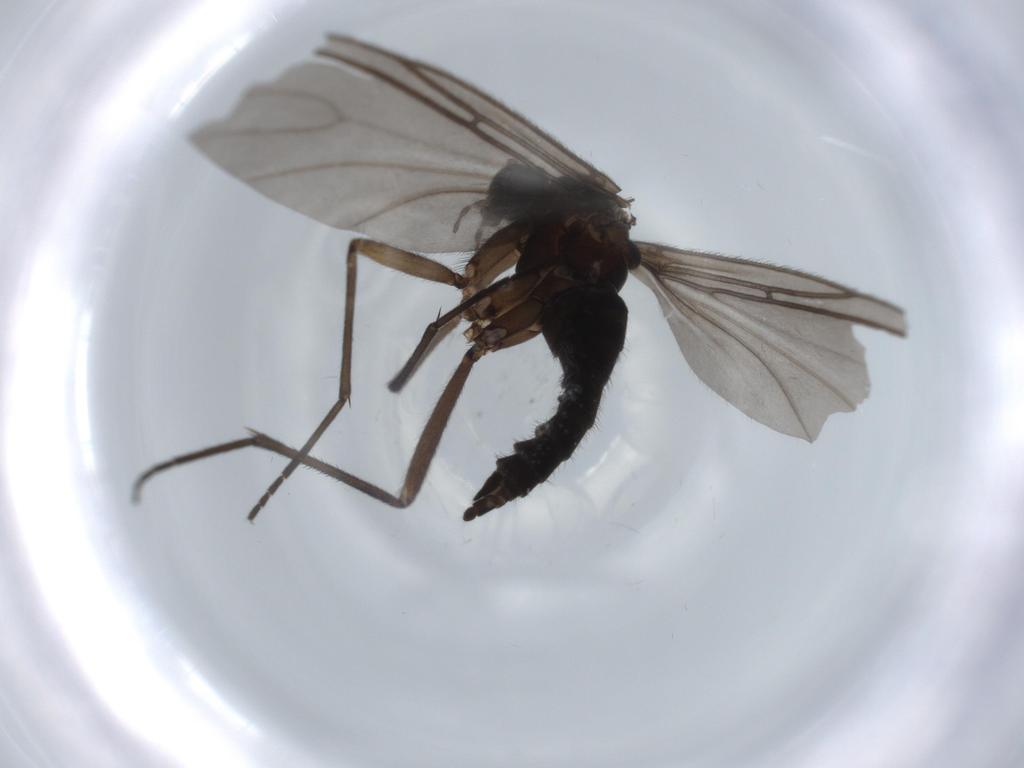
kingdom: Animalia
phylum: Arthropoda
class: Insecta
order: Diptera
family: Sciaridae
